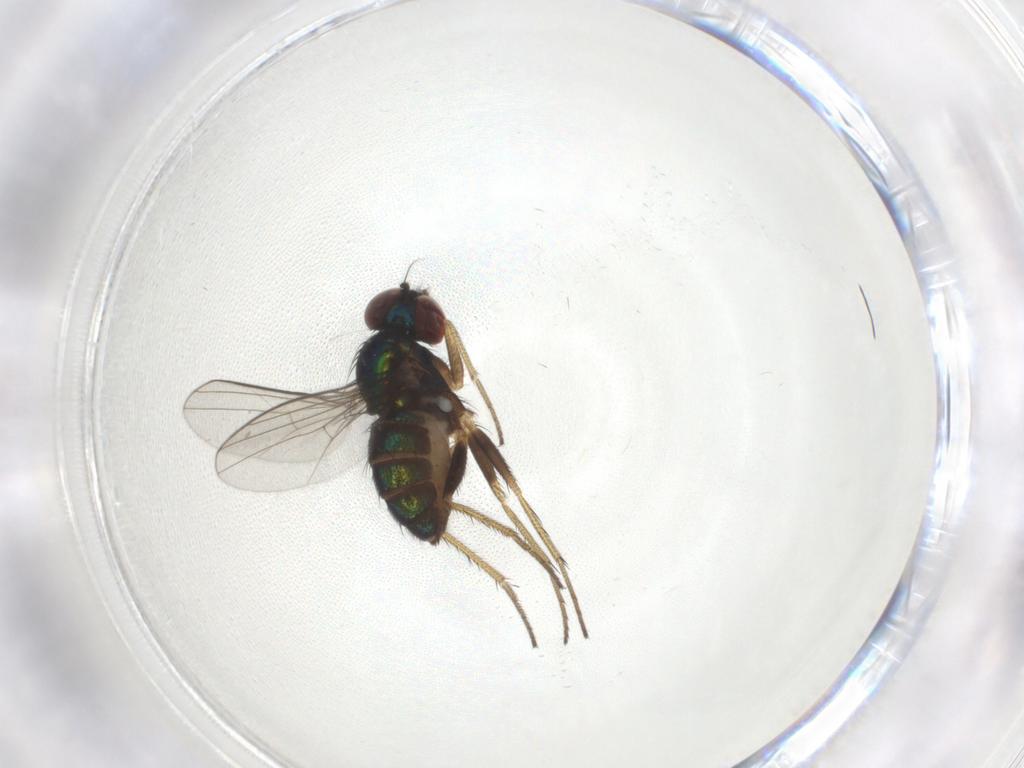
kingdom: Animalia
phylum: Arthropoda
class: Insecta
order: Diptera
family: Dolichopodidae
